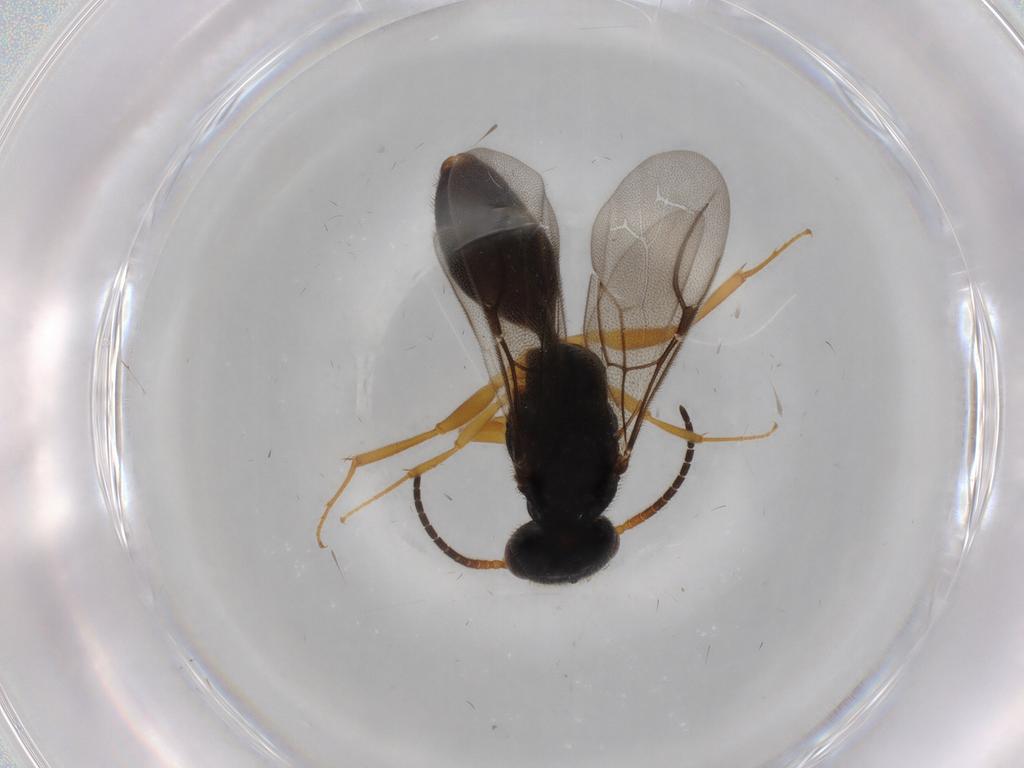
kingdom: Animalia
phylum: Arthropoda
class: Insecta
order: Hymenoptera
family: Bethylidae
